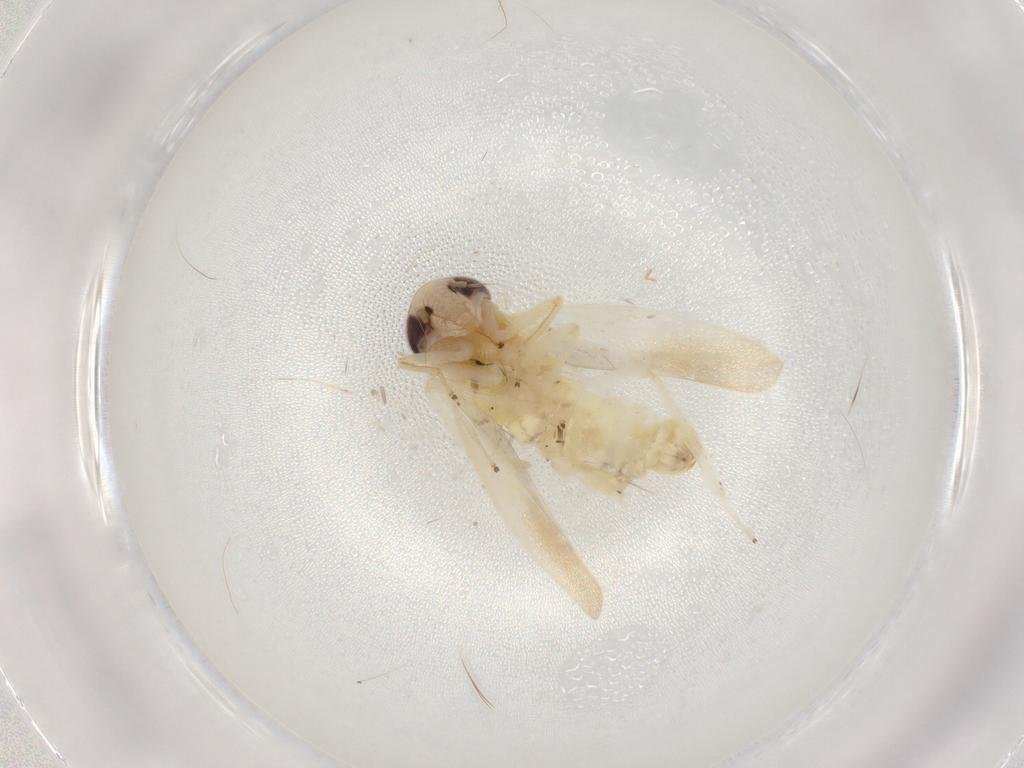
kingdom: Animalia
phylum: Arthropoda
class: Insecta
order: Hemiptera
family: Cicadellidae
